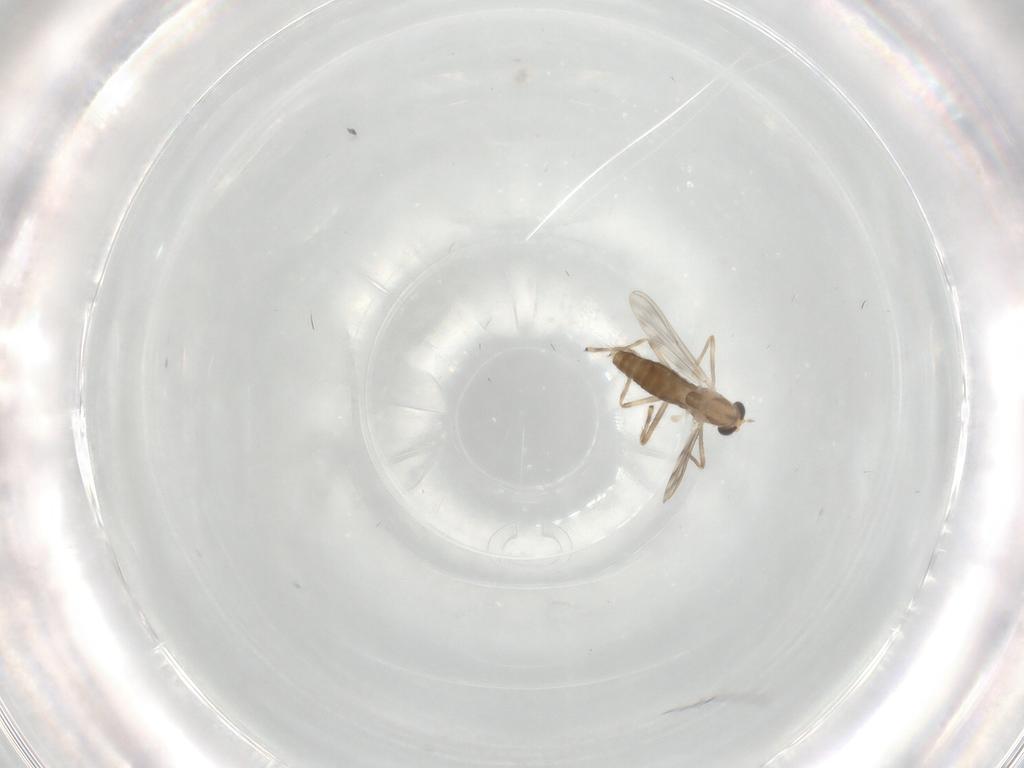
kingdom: Animalia
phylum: Arthropoda
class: Insecta
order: Diptera
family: Chironomidae
